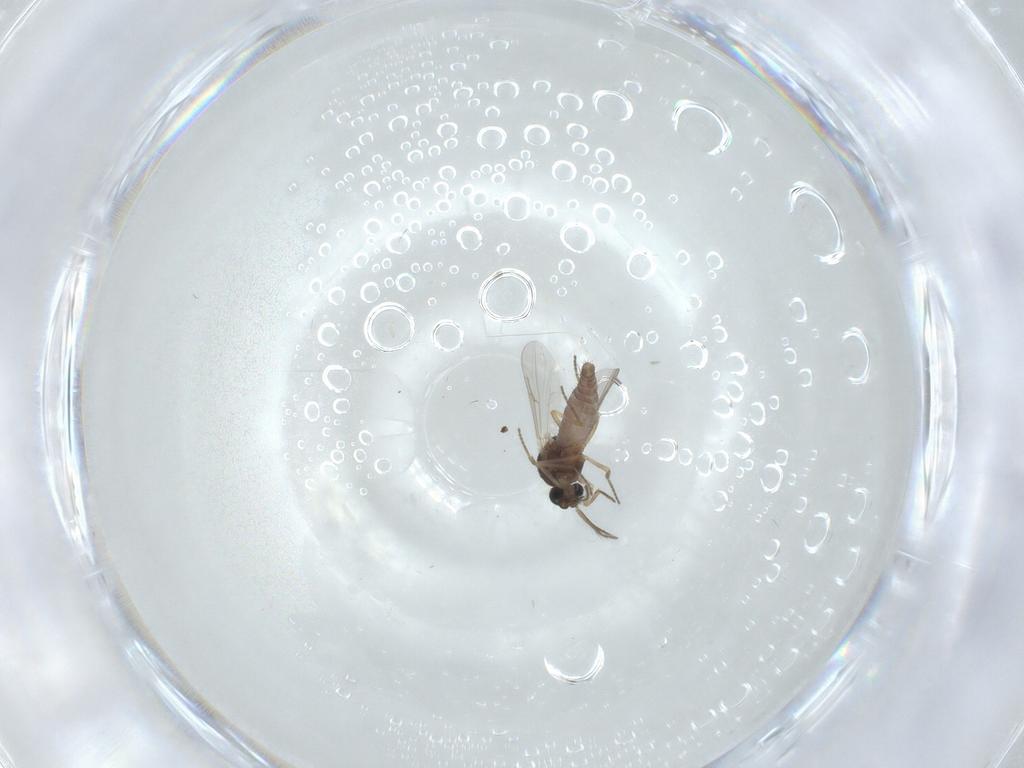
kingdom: Animalia
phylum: Arthropoda
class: Insecta
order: Diptera
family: Ceratopogonidae
